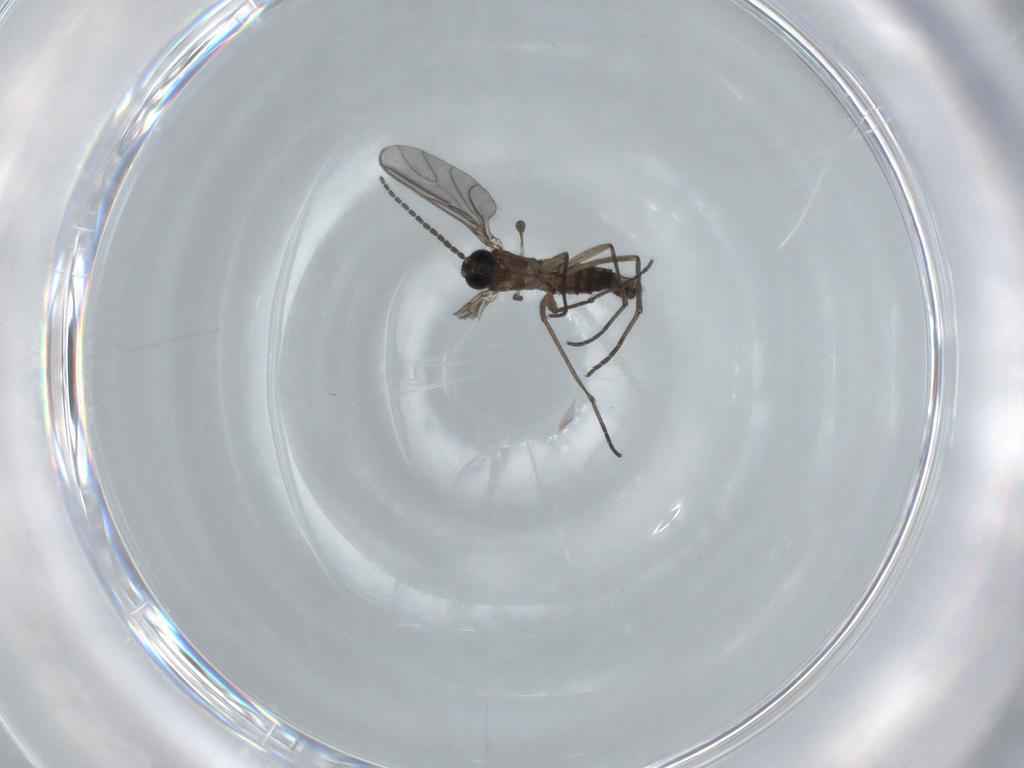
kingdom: Animalia
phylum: Arthropoda
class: Insecta
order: Diptera
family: Sciaridae
